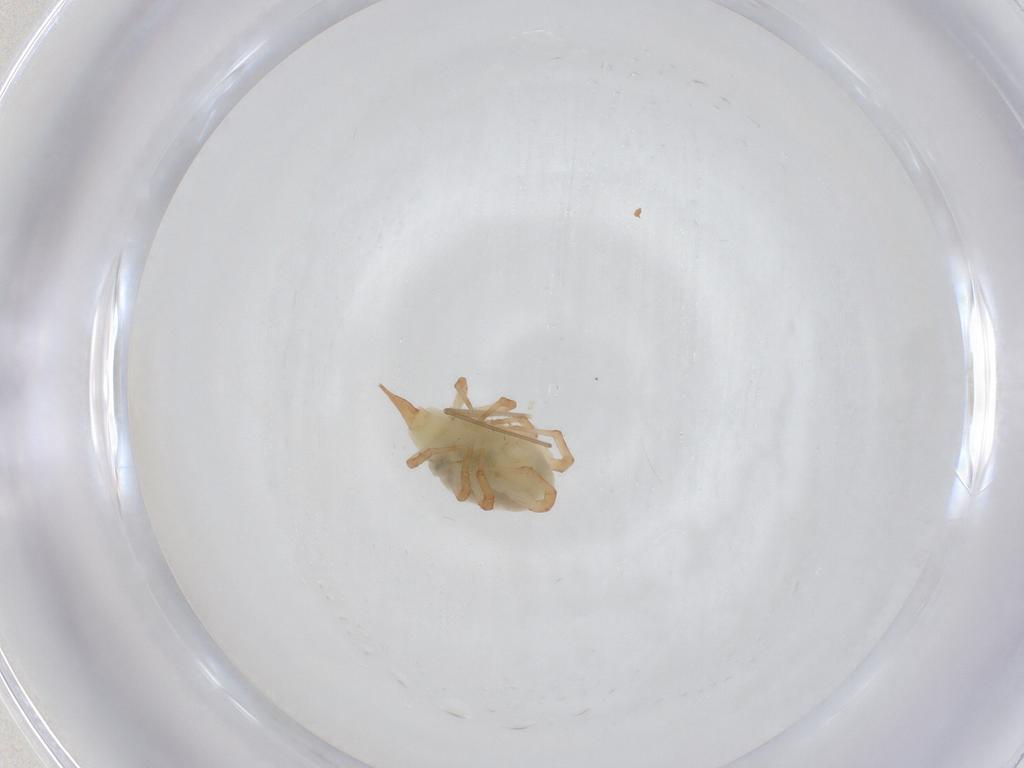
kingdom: Animalia
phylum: Arthropoda
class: Arachnida
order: Trombidiformes
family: Bdellidae
